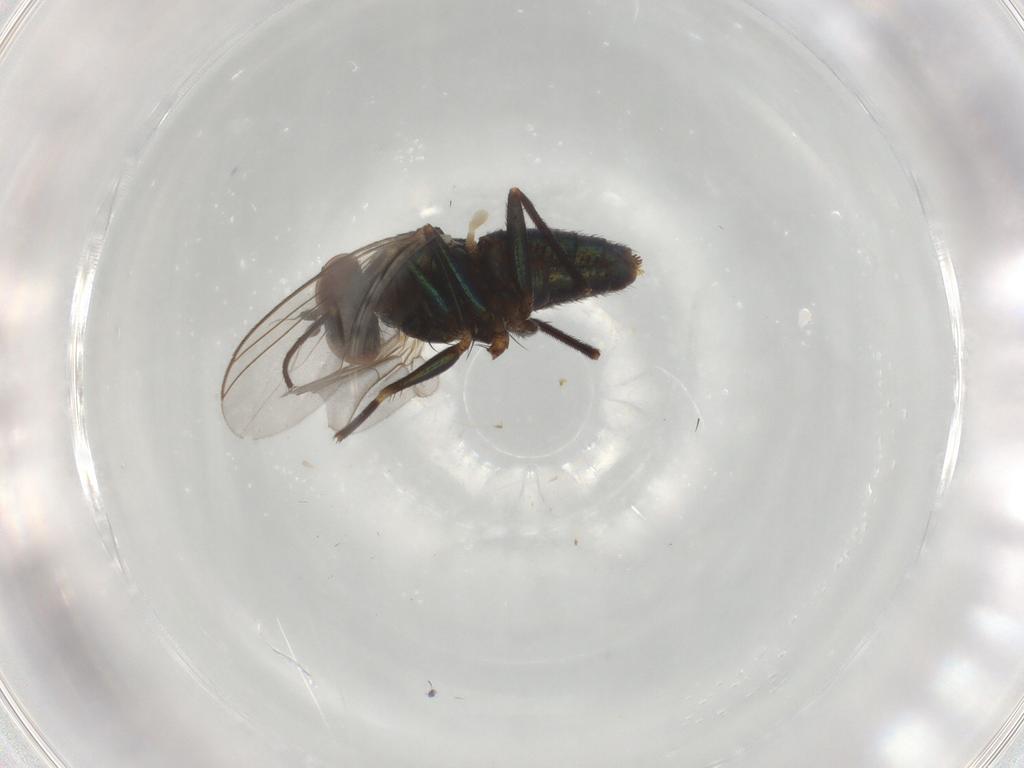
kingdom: Animalia
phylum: Arthropoda
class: Insecta
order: Diptera
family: Dolichopodidae
